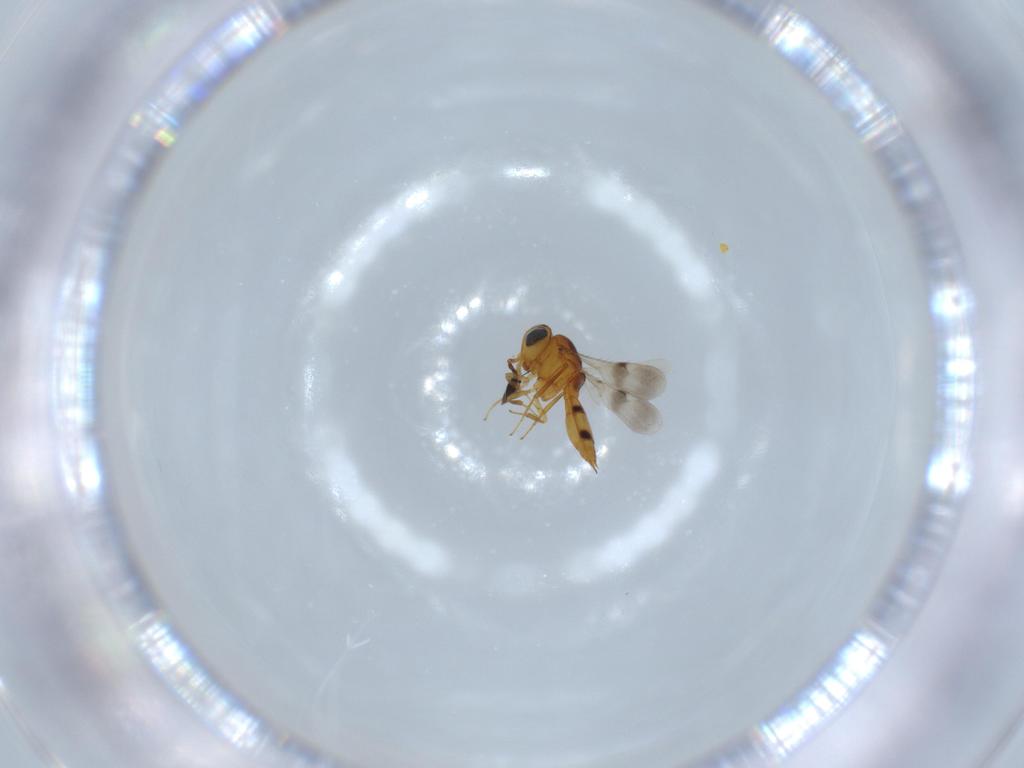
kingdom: Animalia
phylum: Arthropoda
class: Insecta
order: Hymenoptera
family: Scelionidae
